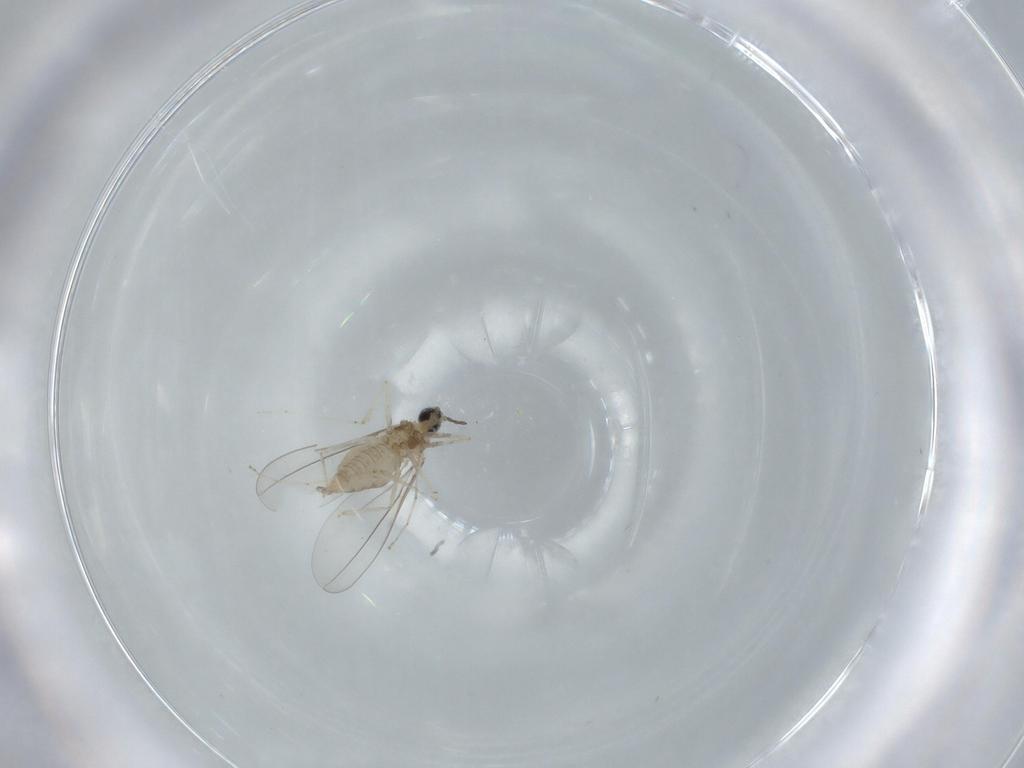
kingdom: Animalia
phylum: Arthropoda
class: Insecta
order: Diptera
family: Cecidomyiidae
